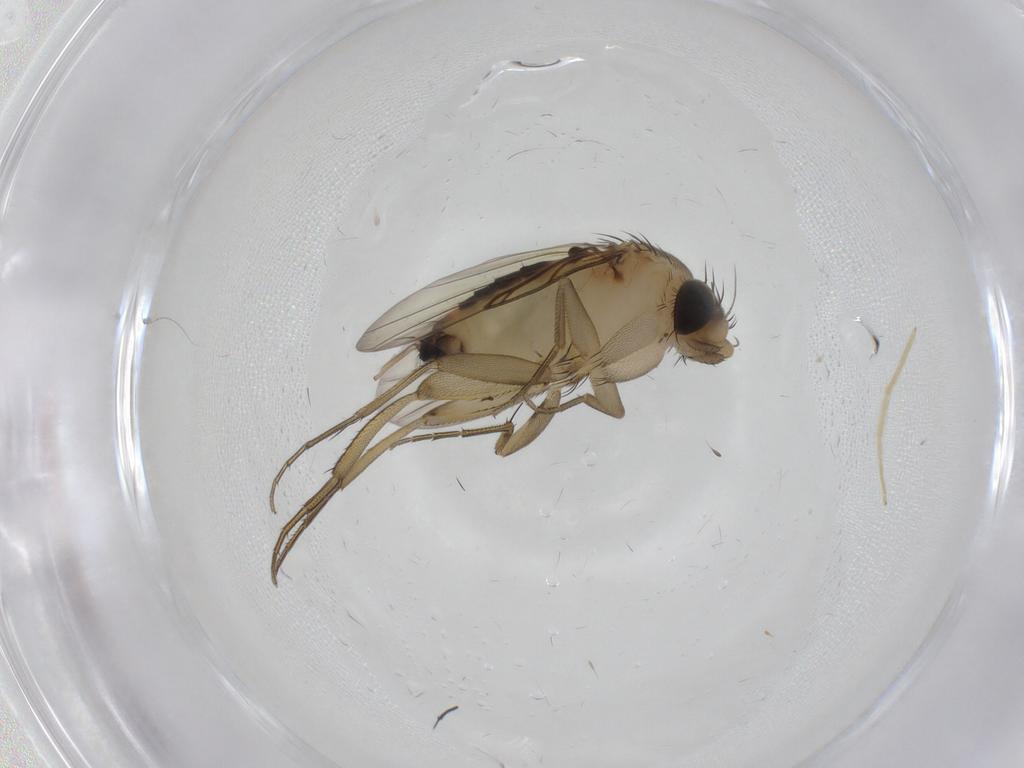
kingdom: Animalia
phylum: Arthropoda
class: Insecta
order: Diptera
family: Phoridae
